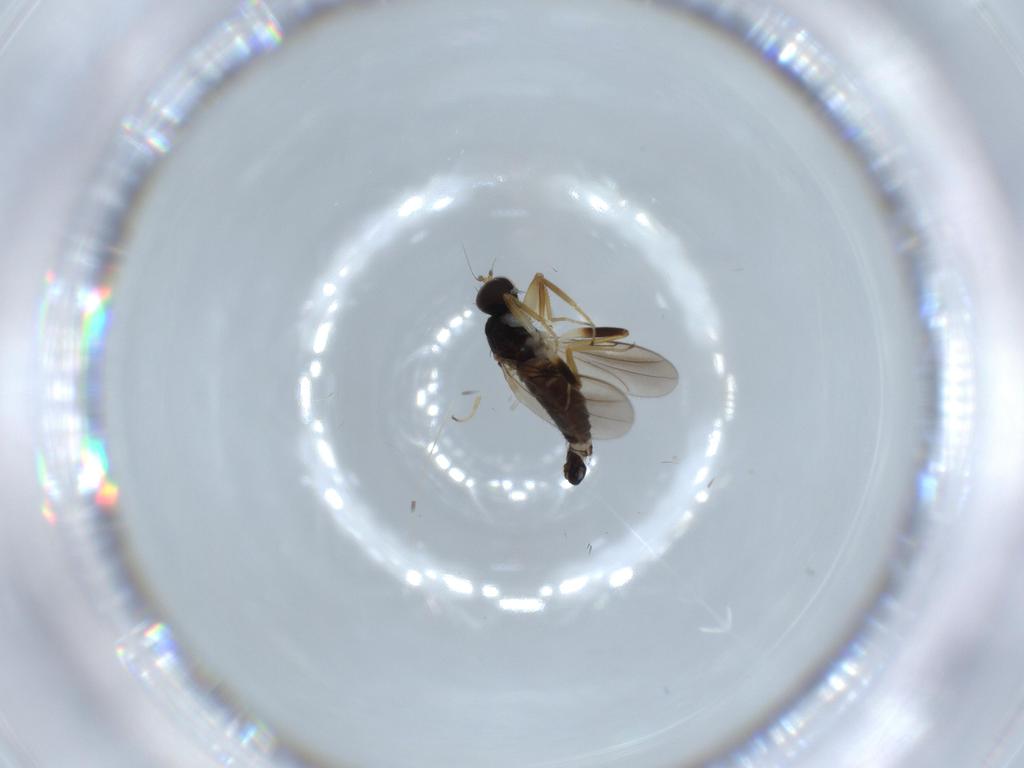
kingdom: Animalia
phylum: Arthropoda
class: Insecta
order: Diptera
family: Hybotidae
